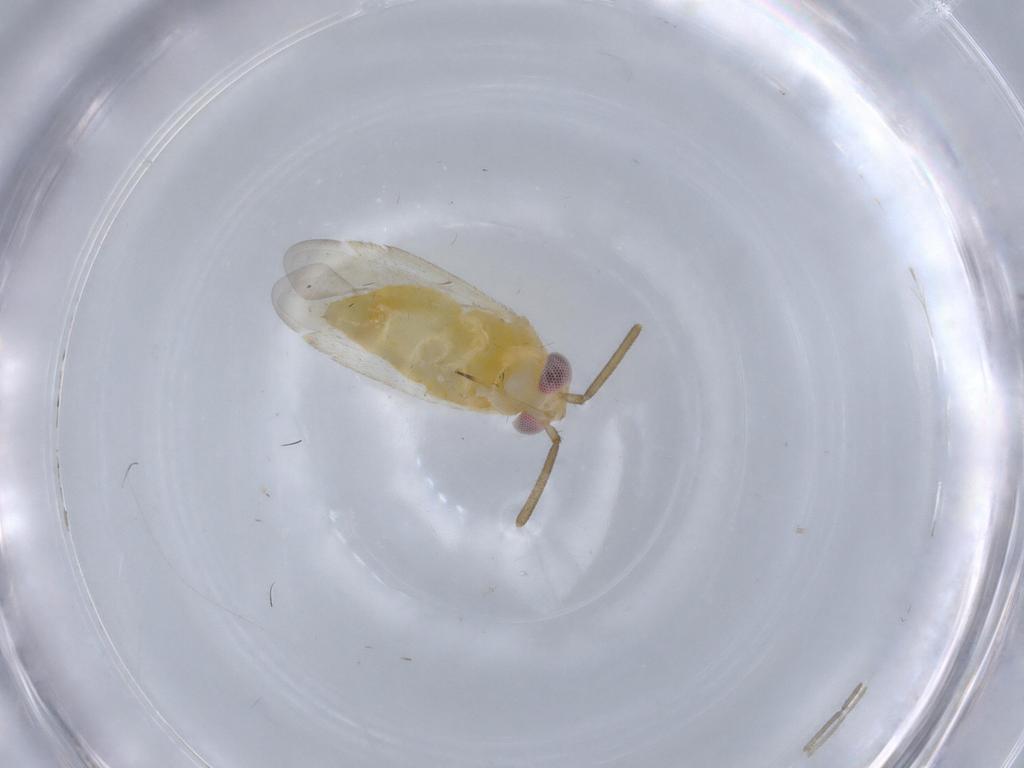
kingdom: Animalia
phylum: Arthropoda
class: Insecta
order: Hemiptera
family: Miridae
